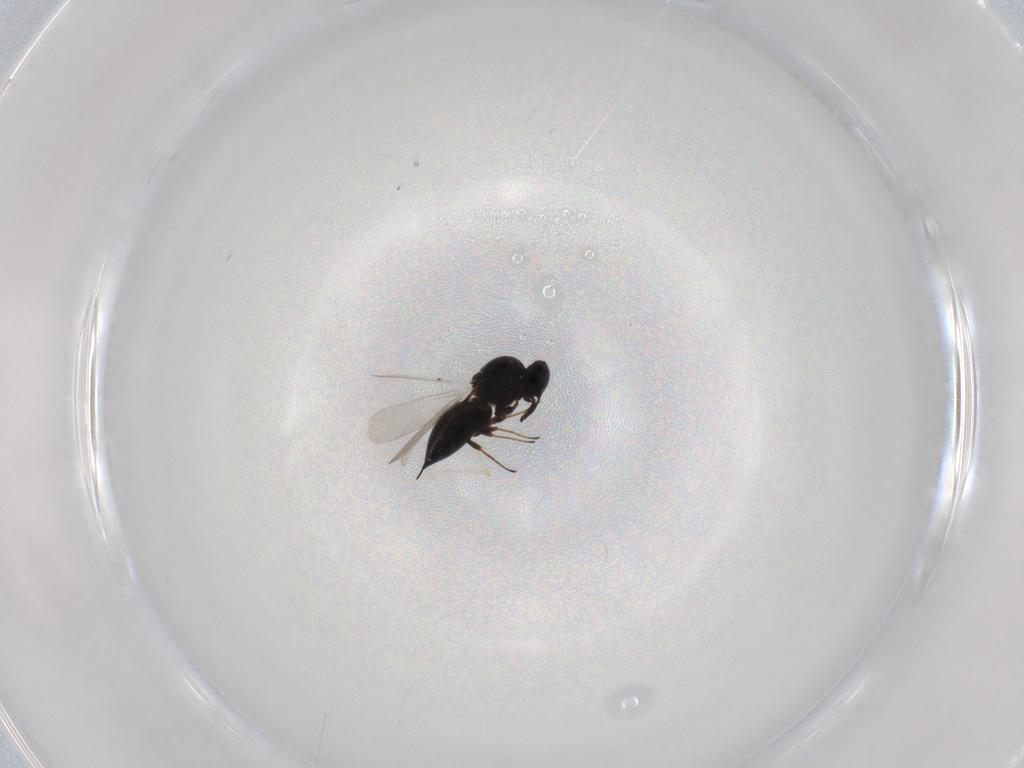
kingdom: Animalia
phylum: Arthropoda
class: Insecta
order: Hymenoptera
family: Platygastridae
